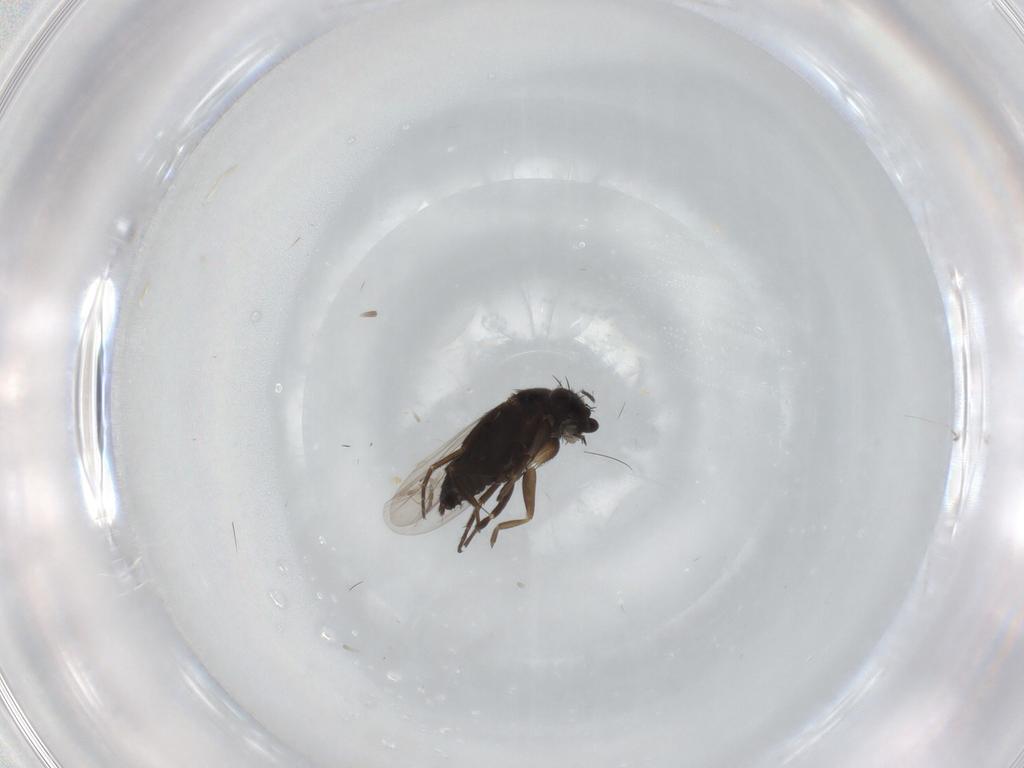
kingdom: Animalia
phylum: Arthropoda
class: Insecta
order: Diptera
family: Phoridae
